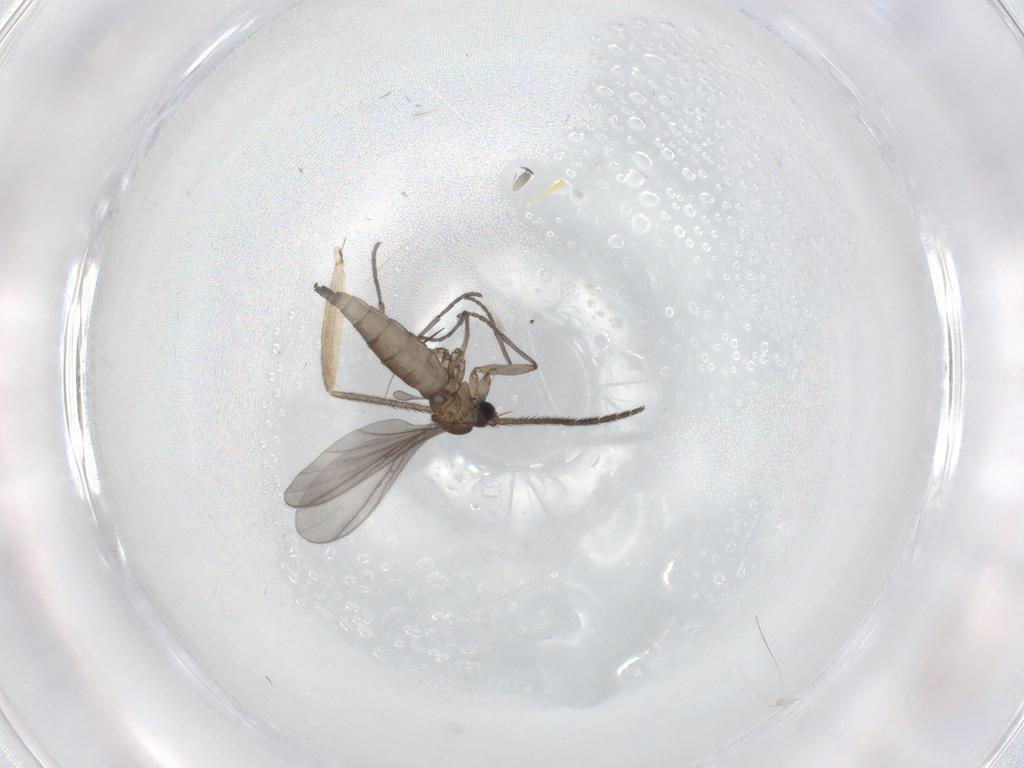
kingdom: Animalia
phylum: Arthropoda
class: Insecta
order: Diptera
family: Sciaridae
